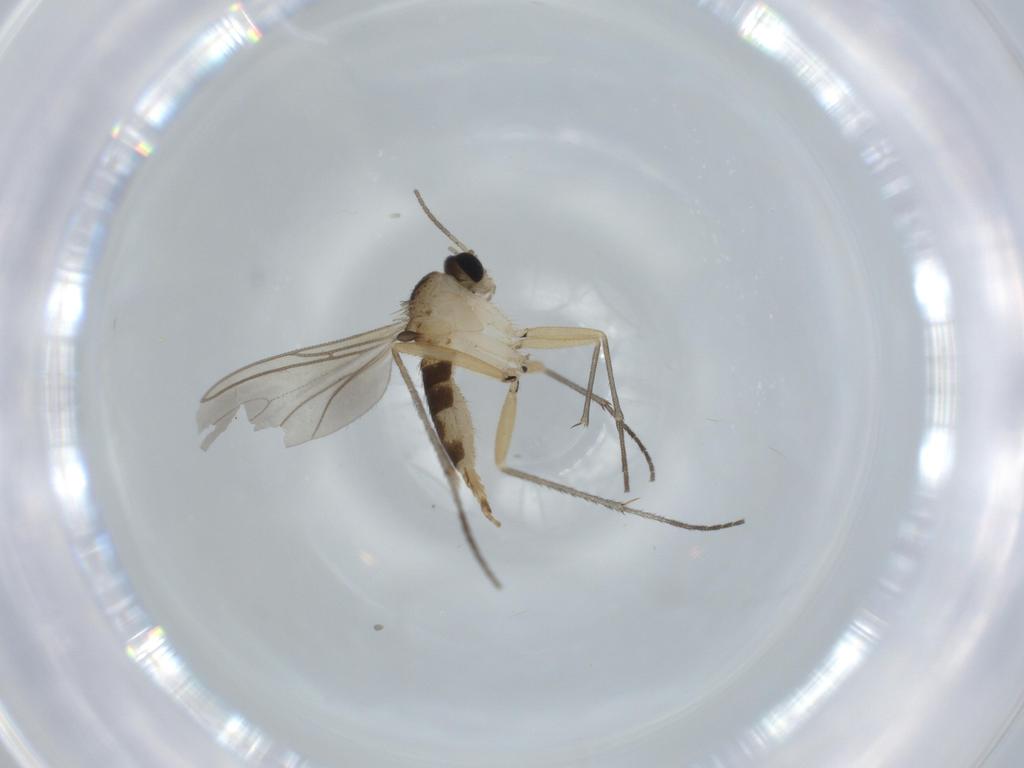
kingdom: Animalia
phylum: Arthropoda
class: Insecta
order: Diptera
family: Sciaridae
